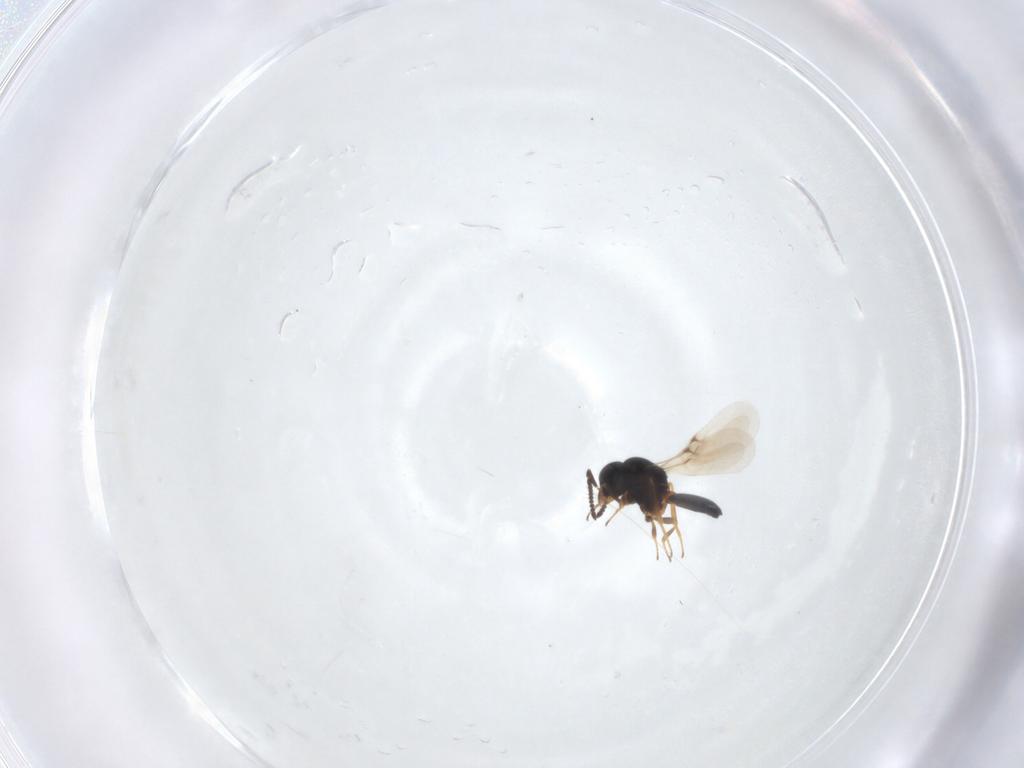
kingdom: Animalia
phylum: Arthropoda
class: Insecta
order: Hymenoptera
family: Scelionidae
